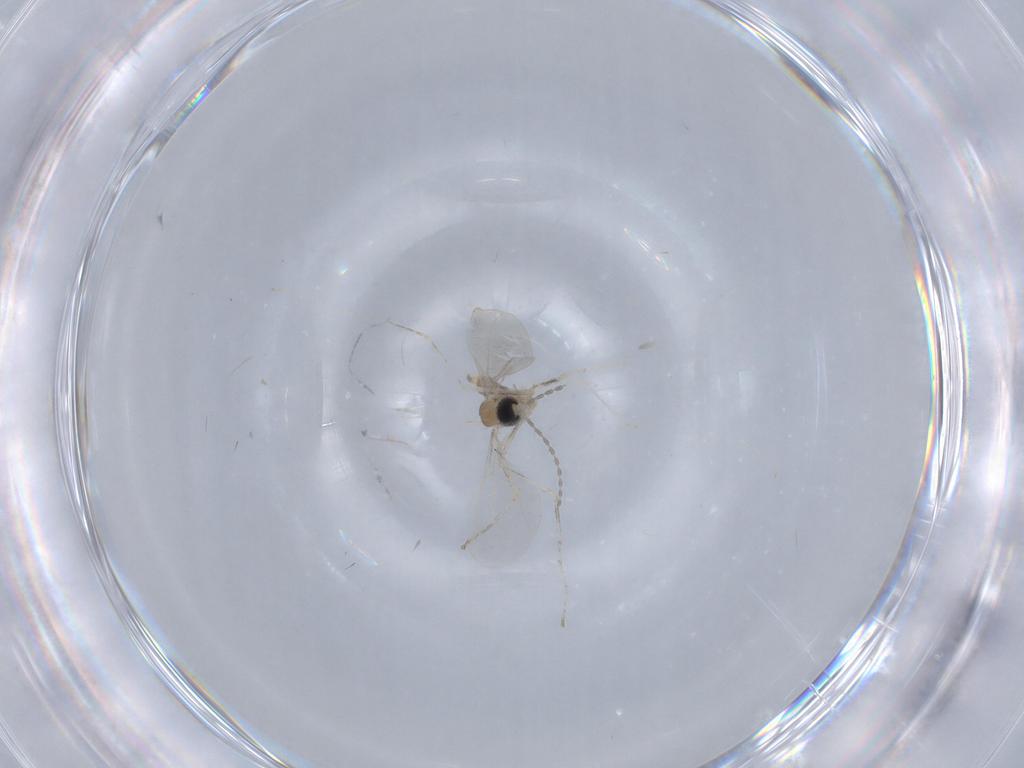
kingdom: Animalia
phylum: Arthropoda
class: Insecta
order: Diptera
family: Cecidomyiidae
